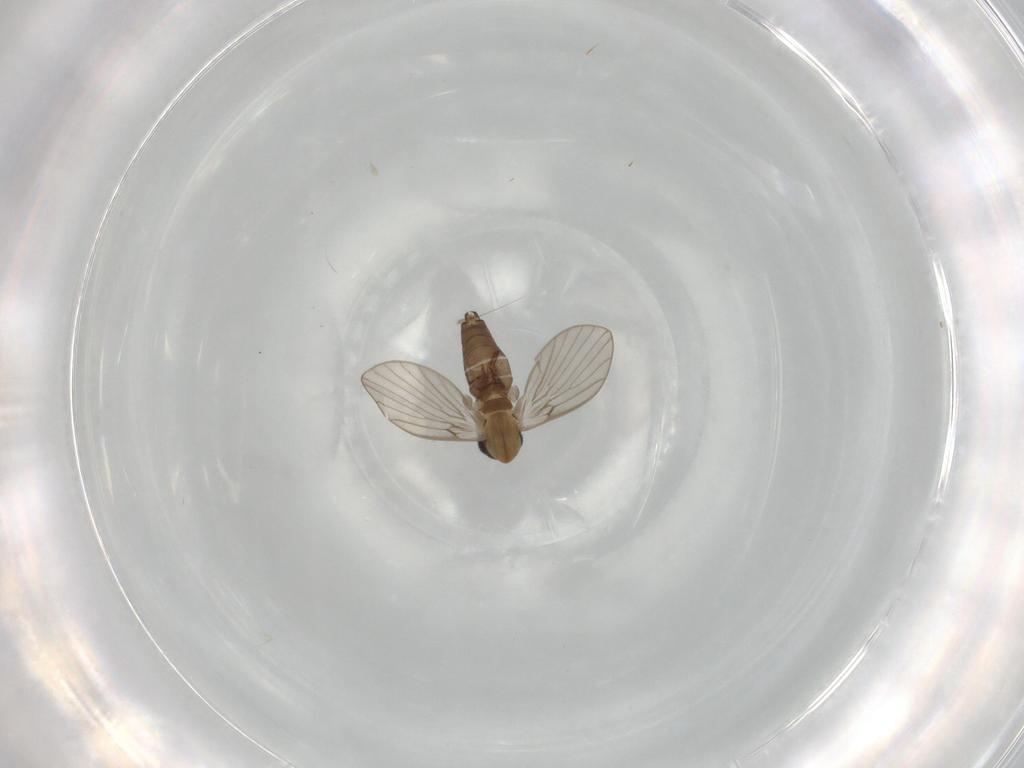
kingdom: Animalia
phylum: Arthropoda
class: Insecta
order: Diptera
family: Psychodidae
